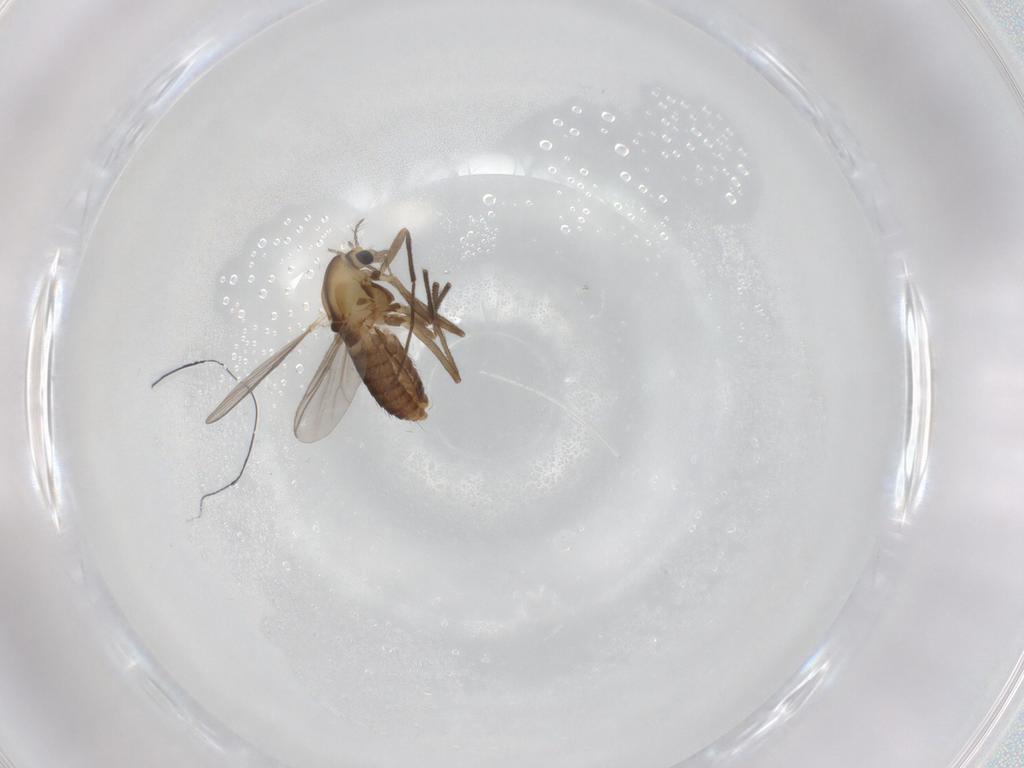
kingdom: Animalia
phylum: Arthropoda
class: Insecta
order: Diptera
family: Chironomidae
